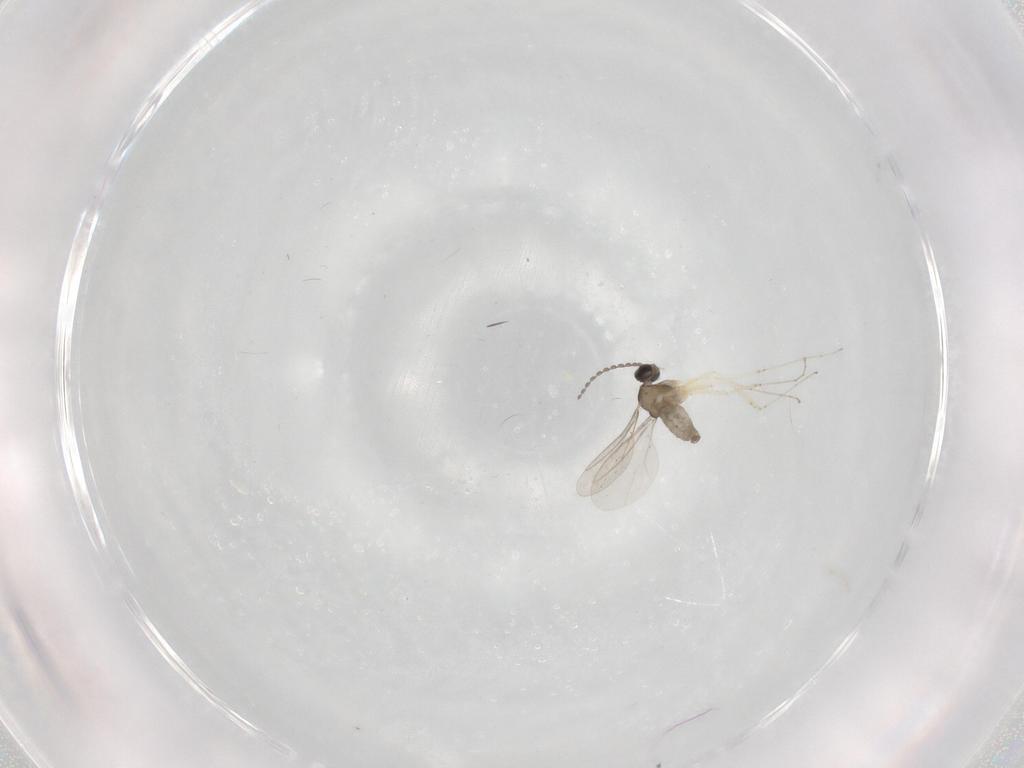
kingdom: Animalia
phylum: Arthropoda
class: Insecta
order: Diptera
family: Cecidomyiidae
